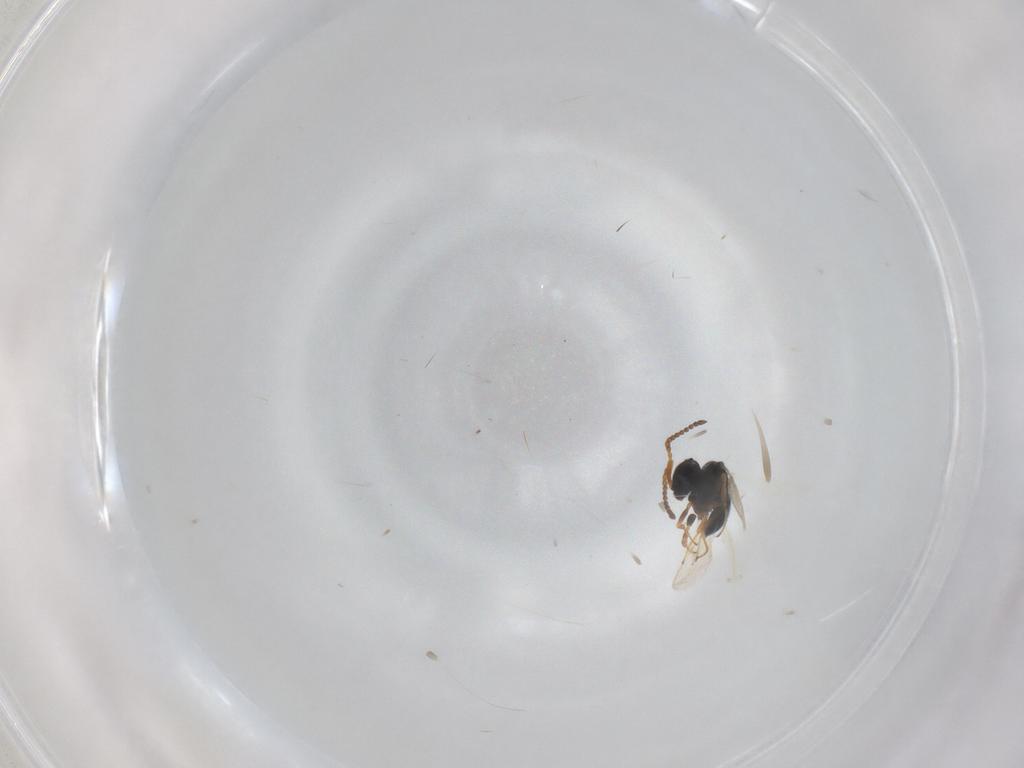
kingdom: Animalia
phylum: Arthropoda
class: Insecta
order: Hymenoptera
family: Scelionidae
